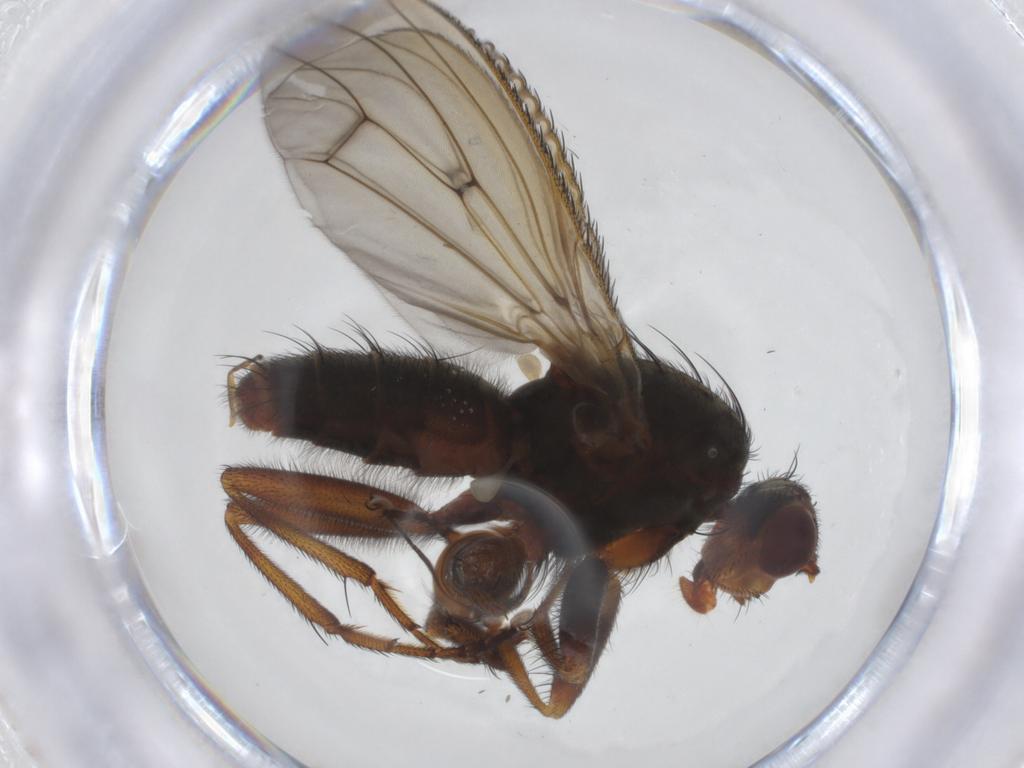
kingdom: Animalia
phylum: Arthropoda
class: Insecta
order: Diptera
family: Heleomyzidae
